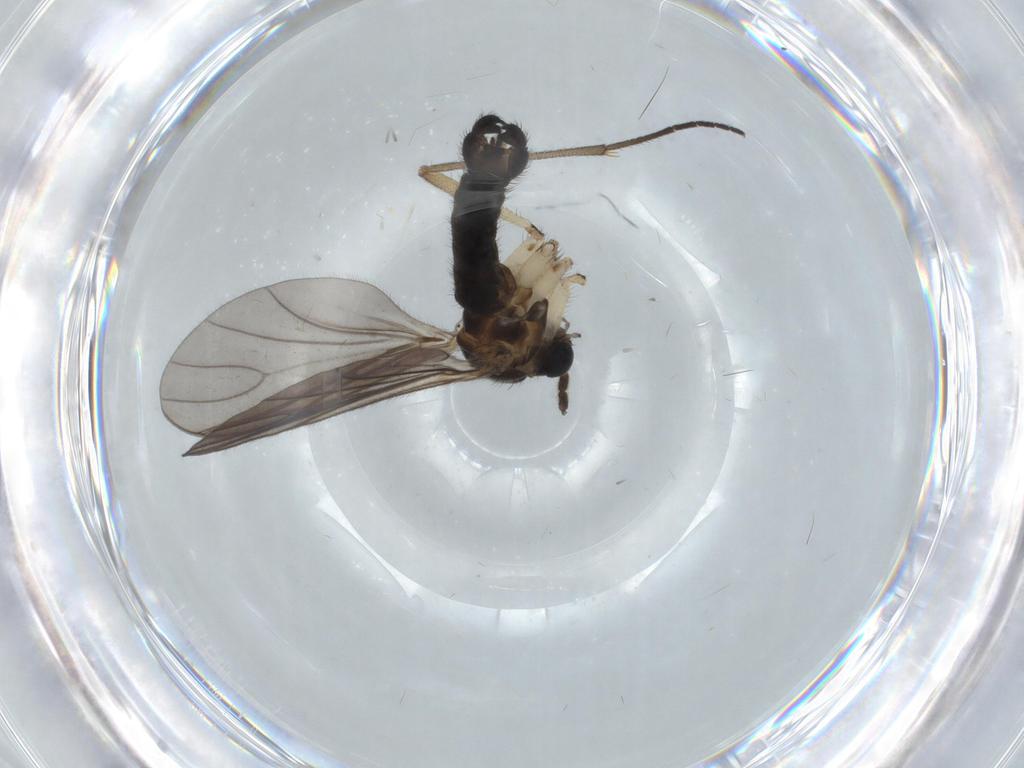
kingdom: Animalia
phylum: Arthropoda
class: Insecta
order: Diptera
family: Sciaridae
